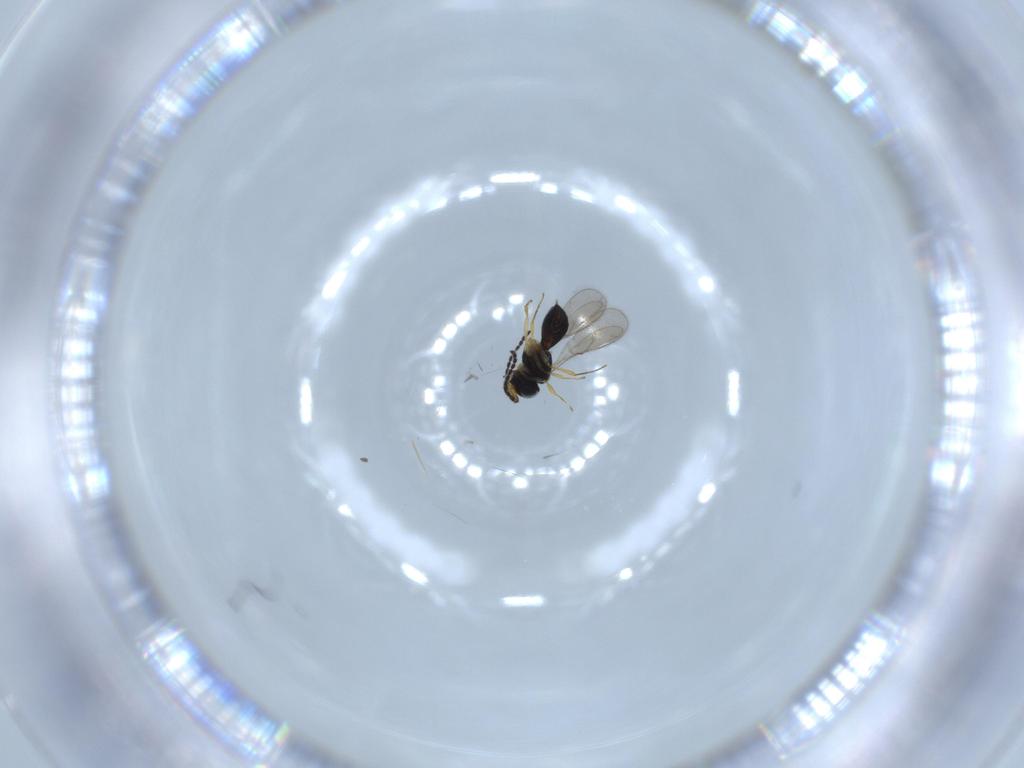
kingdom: Animalia
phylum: Arthropoda
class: Insecta
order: Hymenoptera
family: Scelionidae
